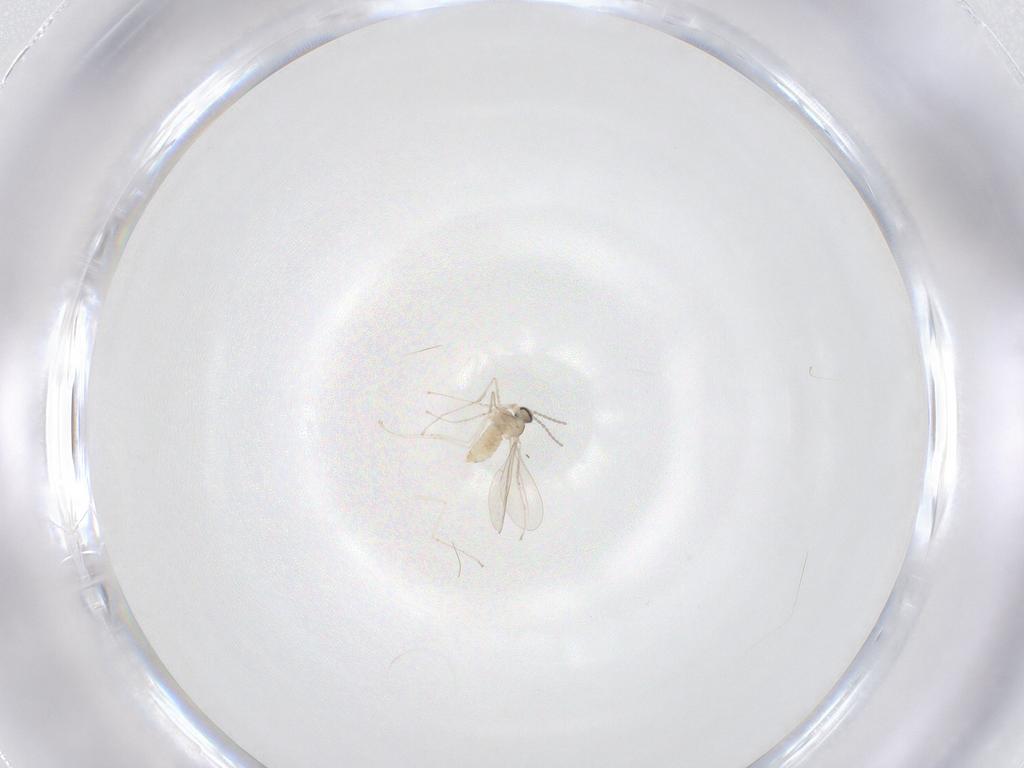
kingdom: Animalia
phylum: Arthropoda
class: Insecta
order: Diptera
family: Cecidomyiidae
